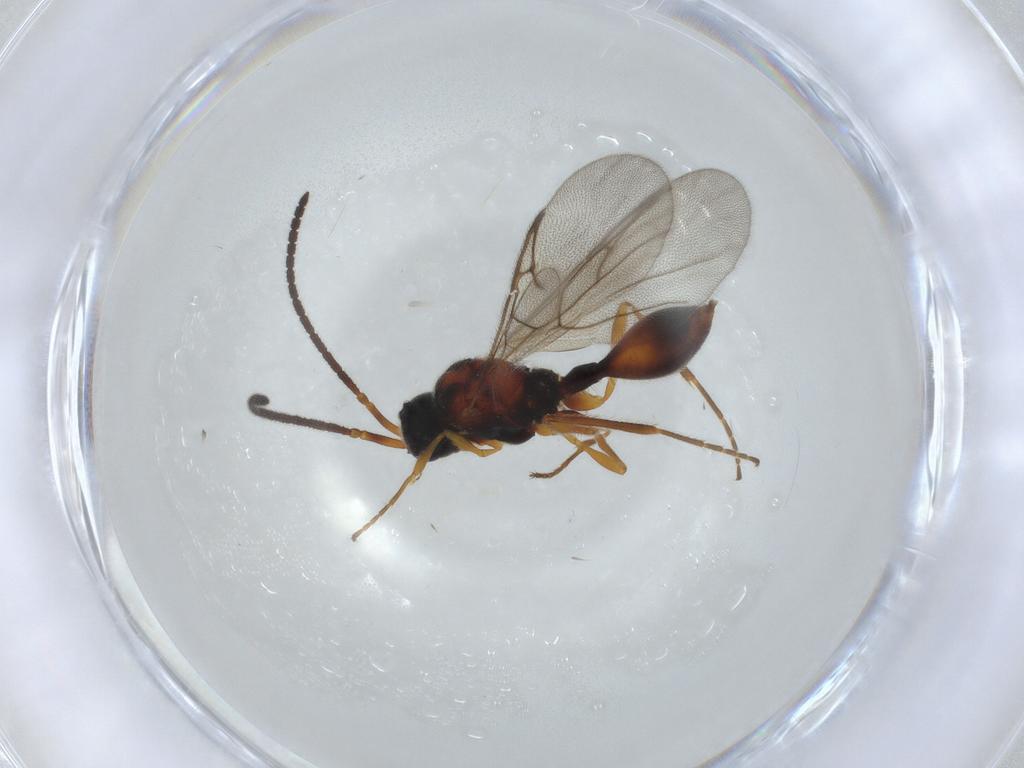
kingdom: Animalia
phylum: Arthropoda
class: Insecta
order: Hymenoptera
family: Diapriidae
